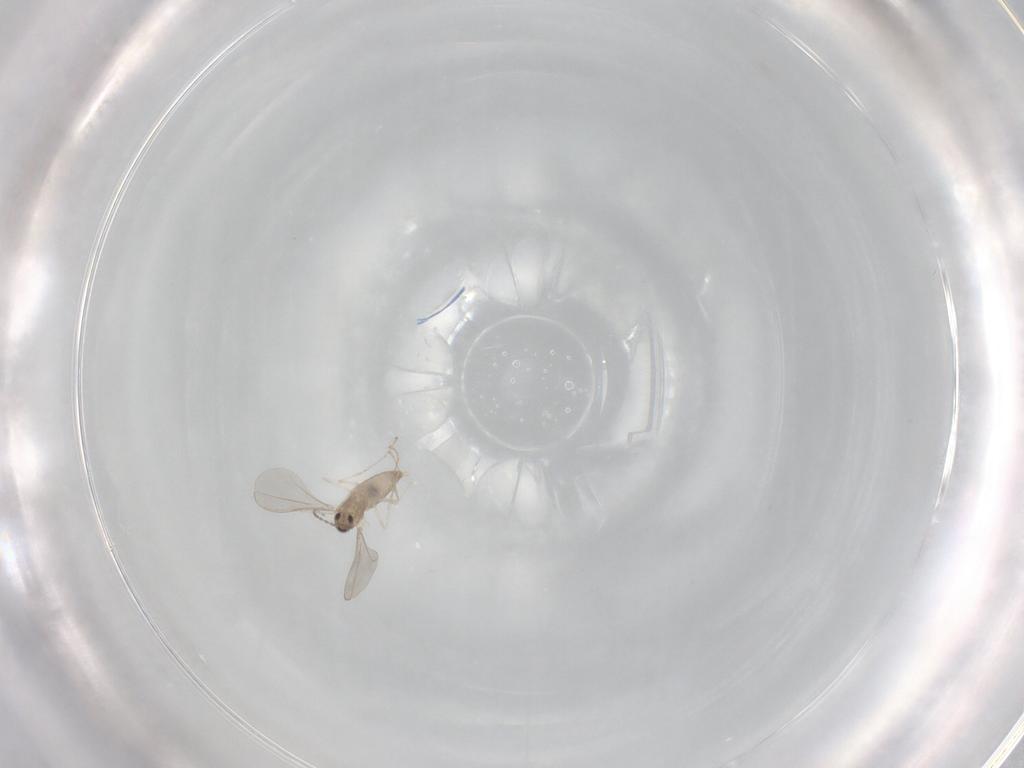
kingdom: Animalia
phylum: Arthropoda
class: Insecta
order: Diptera
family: Cecidomyiidae
